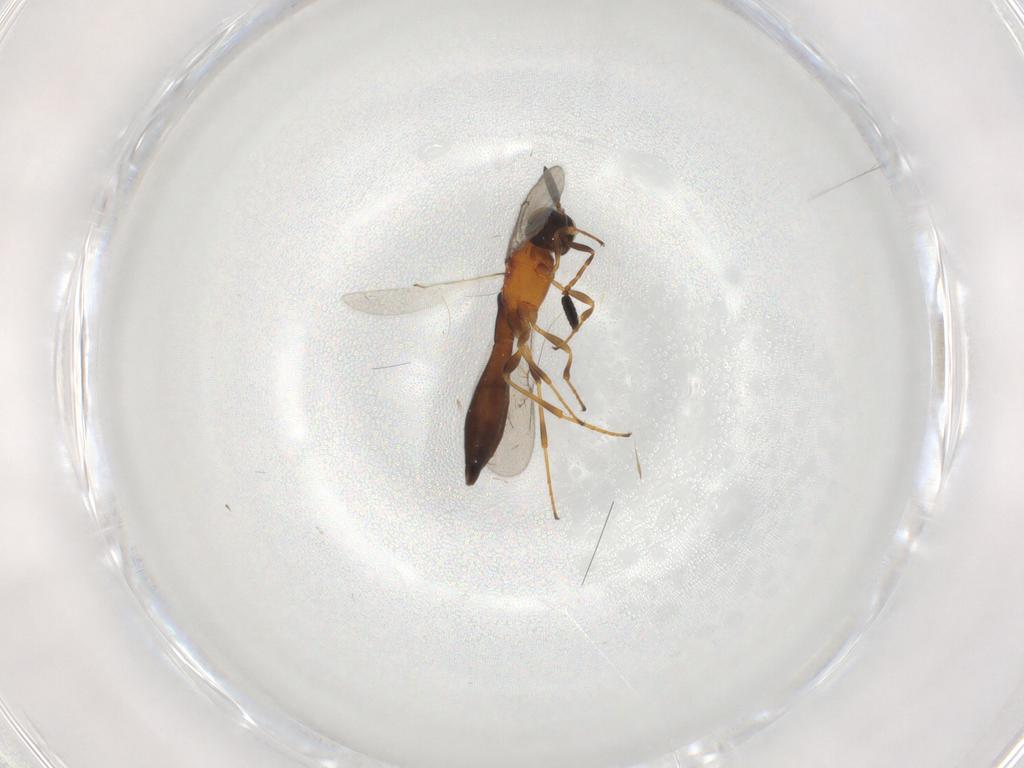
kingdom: Animalia
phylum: Arthropoda
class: Insecta
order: Hymenoptera
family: Scelionidae
